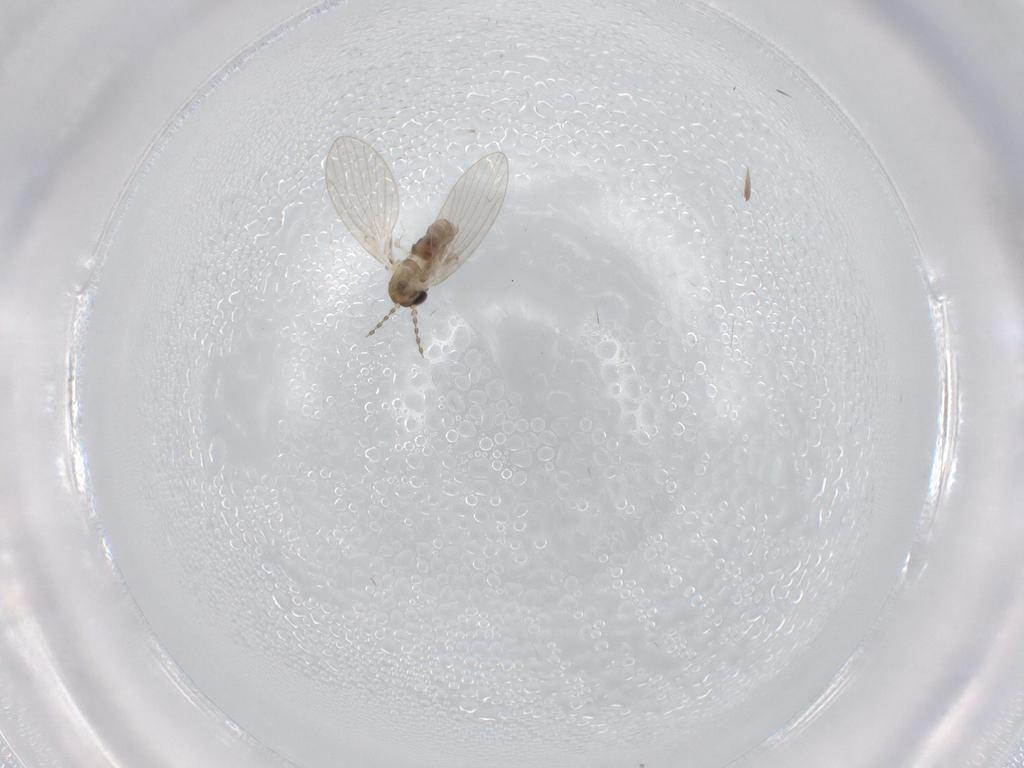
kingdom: Animalia
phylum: Arthropoda
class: Insecta
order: Diptera
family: Psychodidae
